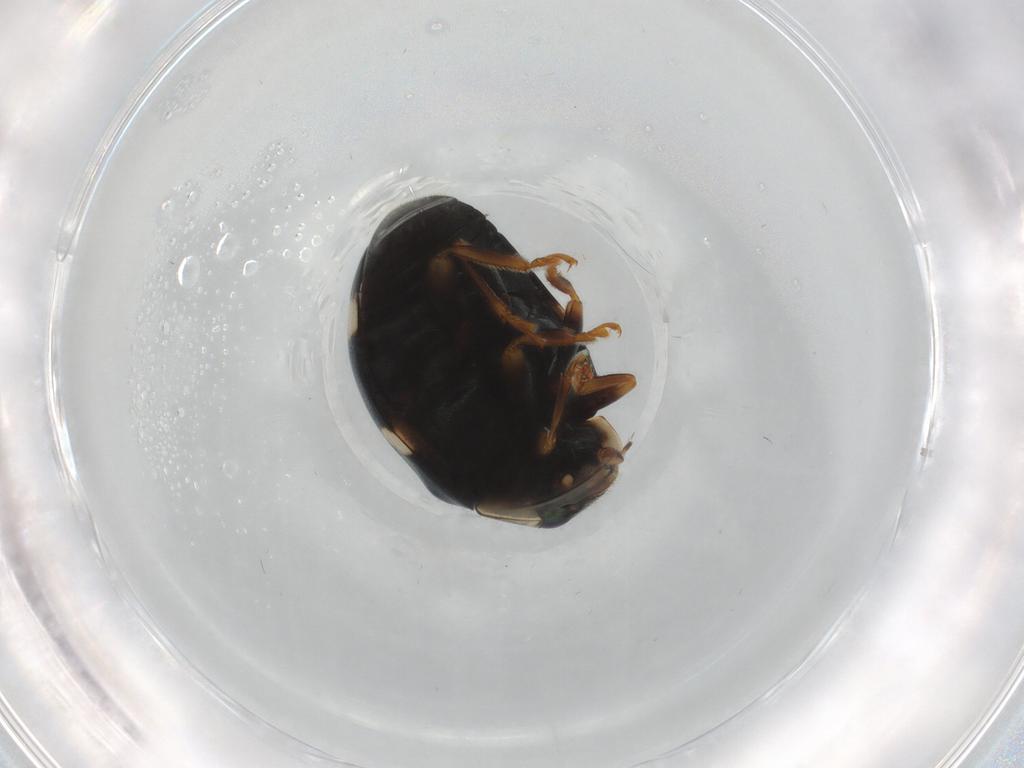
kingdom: Animalia
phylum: Arthropoda
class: Insecta
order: Coleoptera
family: Coccinellidae
